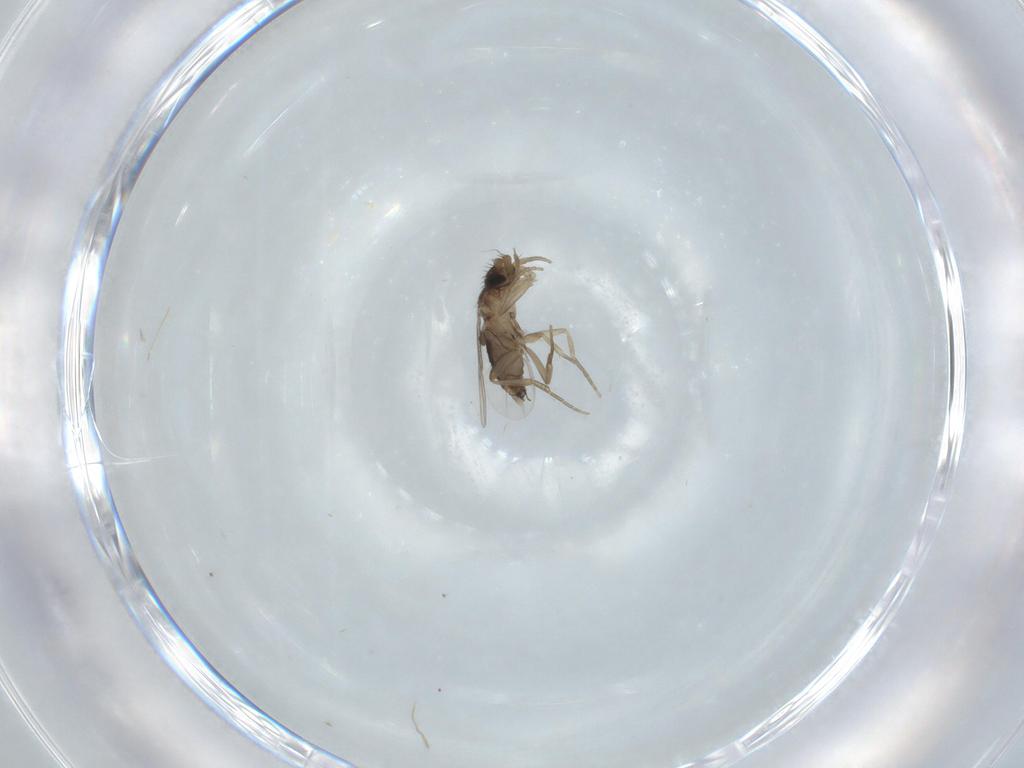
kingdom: Animalia
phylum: Arthropoda
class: Insecta
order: Diptera
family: Phoridae
